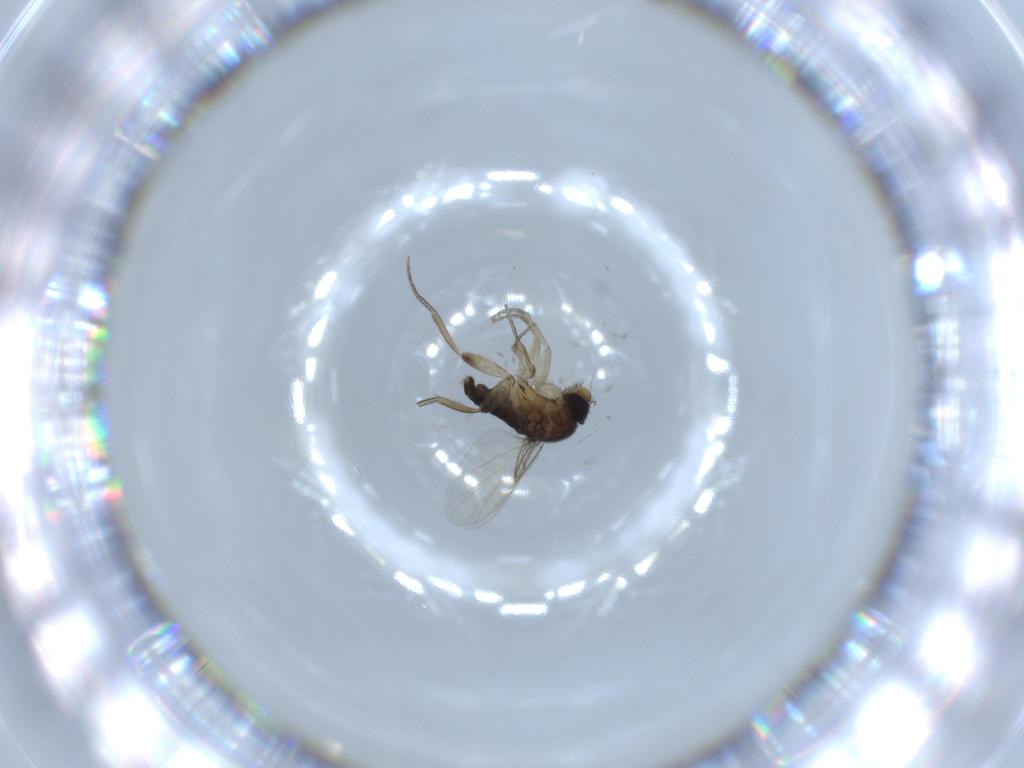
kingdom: Animalia
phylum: Arthropoda
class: Insecta
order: Diptera
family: Phoridae
